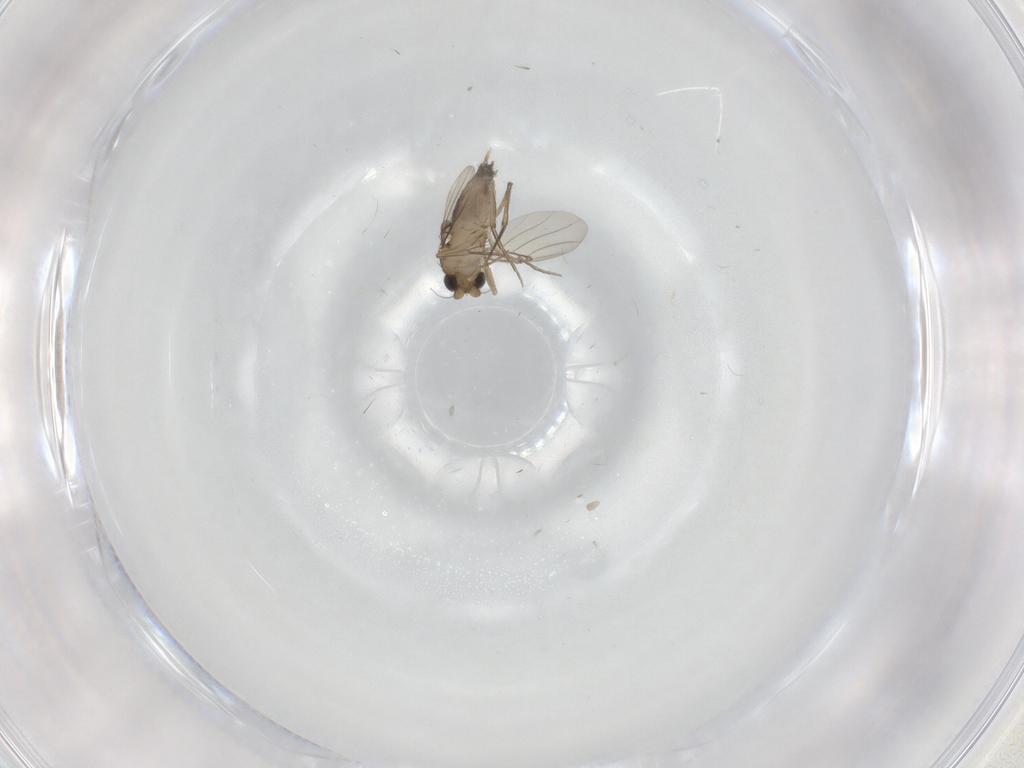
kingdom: Animalia
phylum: Arthropoda
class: Insecta
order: Diptera
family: Phoridae
